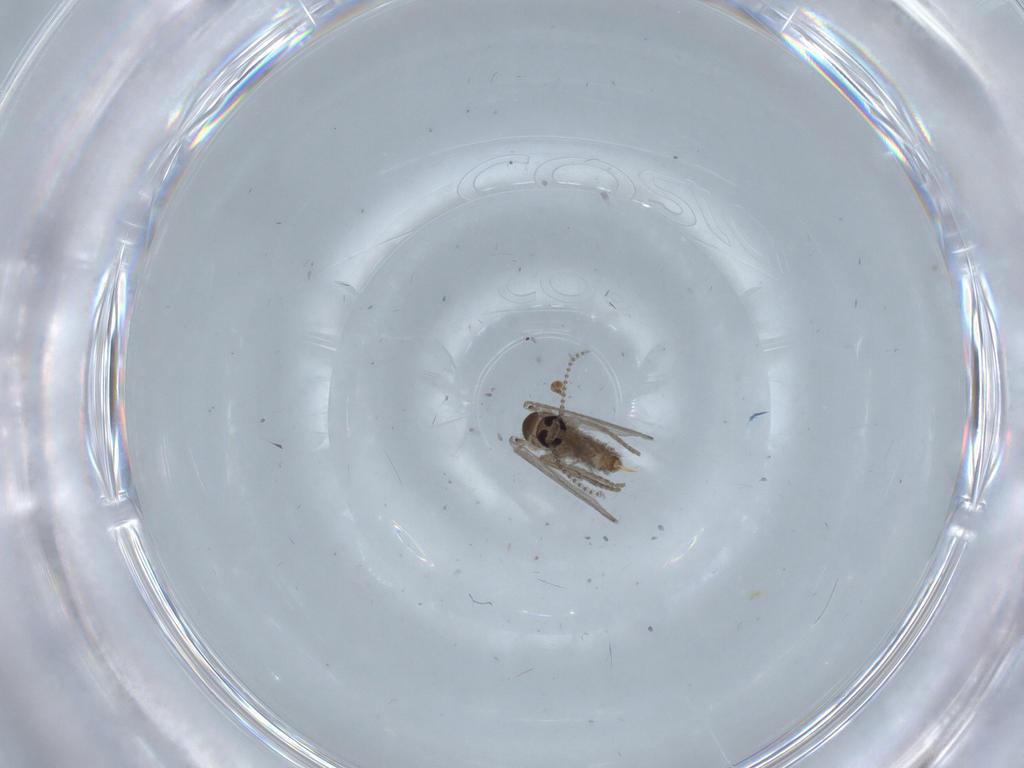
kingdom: Animalia
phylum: Arthropoda
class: Insecta
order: Diptera
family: Psychodidae
